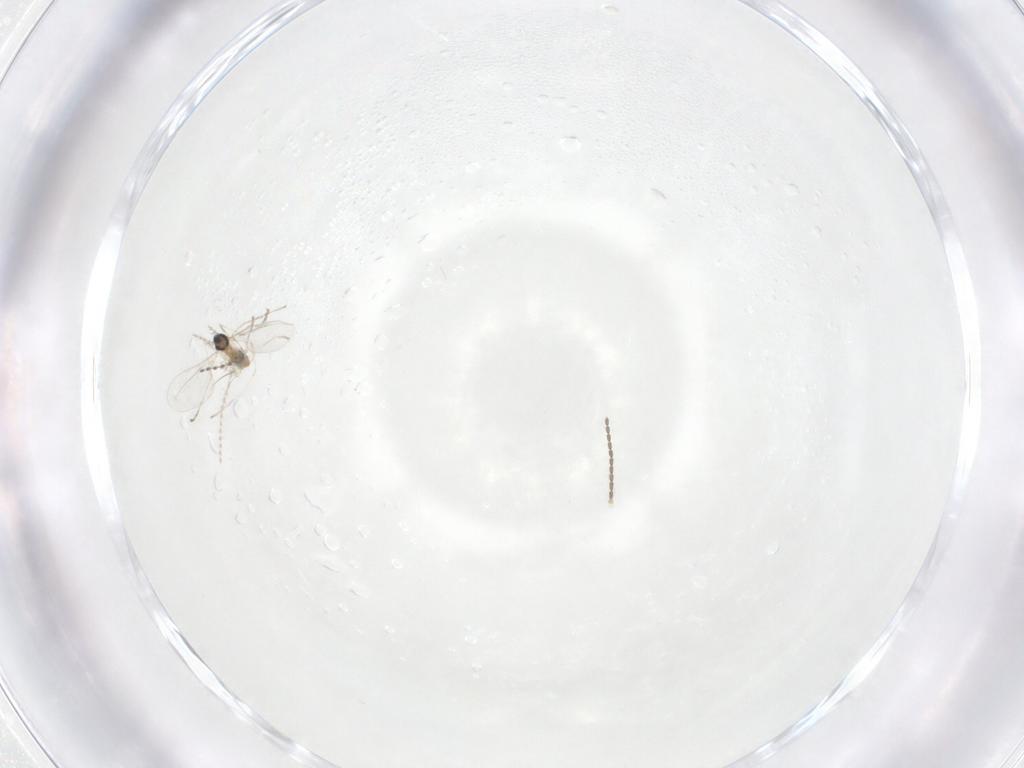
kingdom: Animalia
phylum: Arthropoda
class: Insecta
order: Diptera
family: Cecidomyiidae
